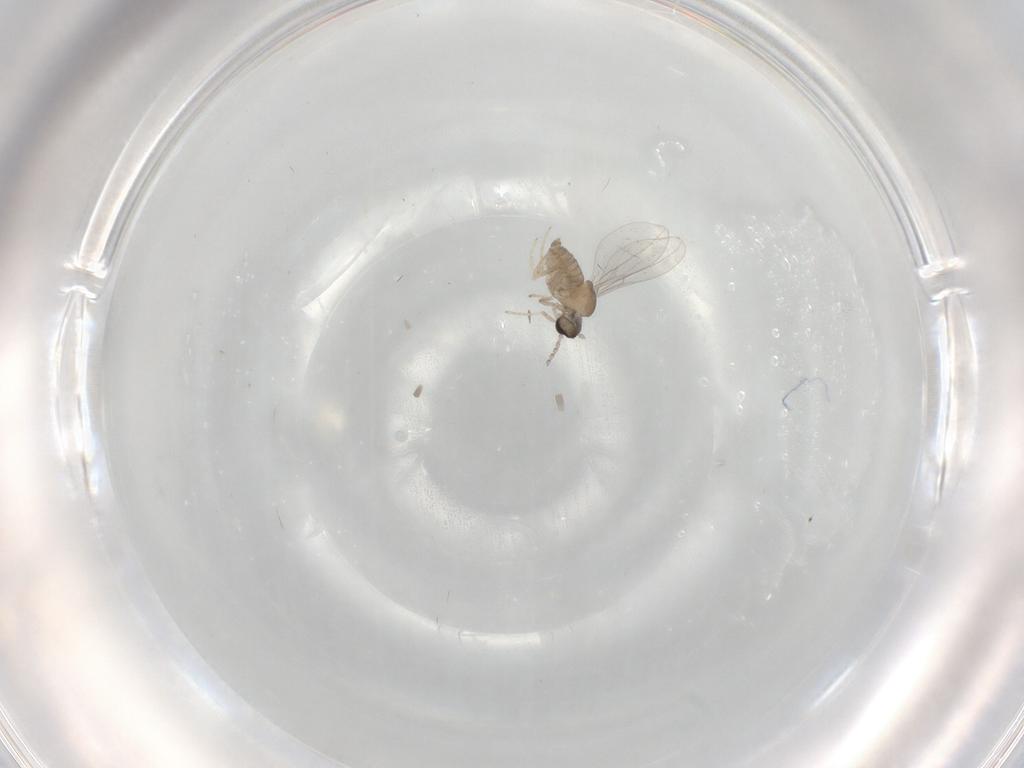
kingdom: Animalia
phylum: Arthropoda
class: Insecta
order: Diptera
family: Cecidomyiidae
